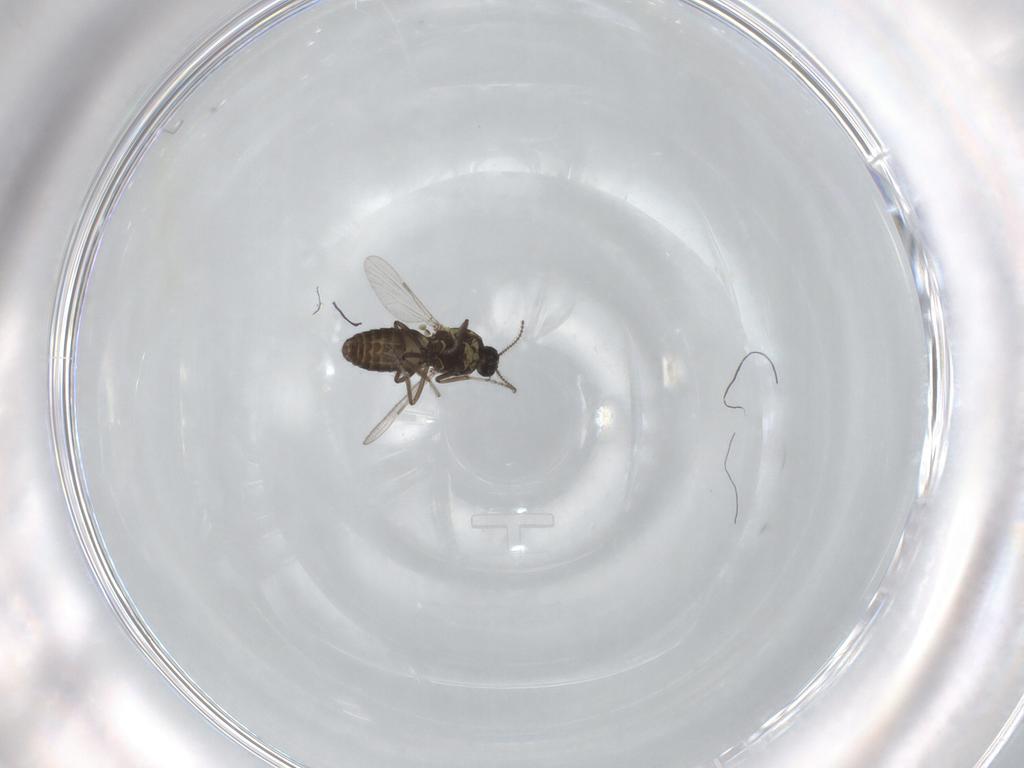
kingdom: Animalia
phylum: Arthropoda
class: Insecta
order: Diptera
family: Ceratopogonidae
